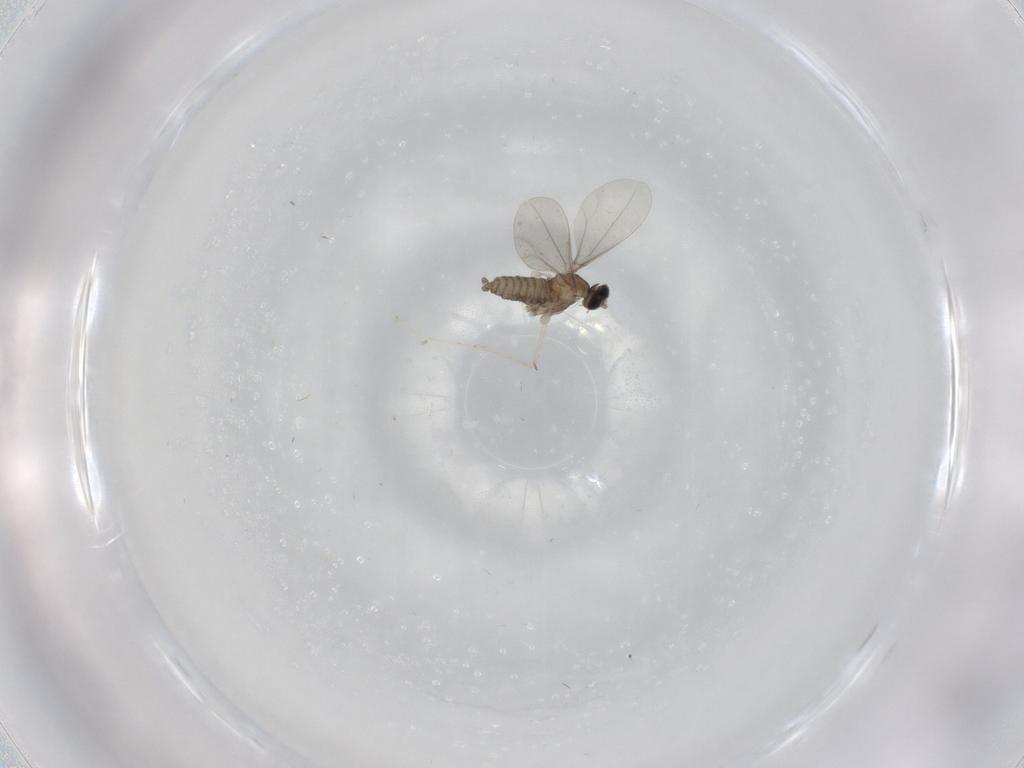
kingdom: Animalia
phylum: Arthropoda
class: Insecta
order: Diptera
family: Cecidomyiidae
